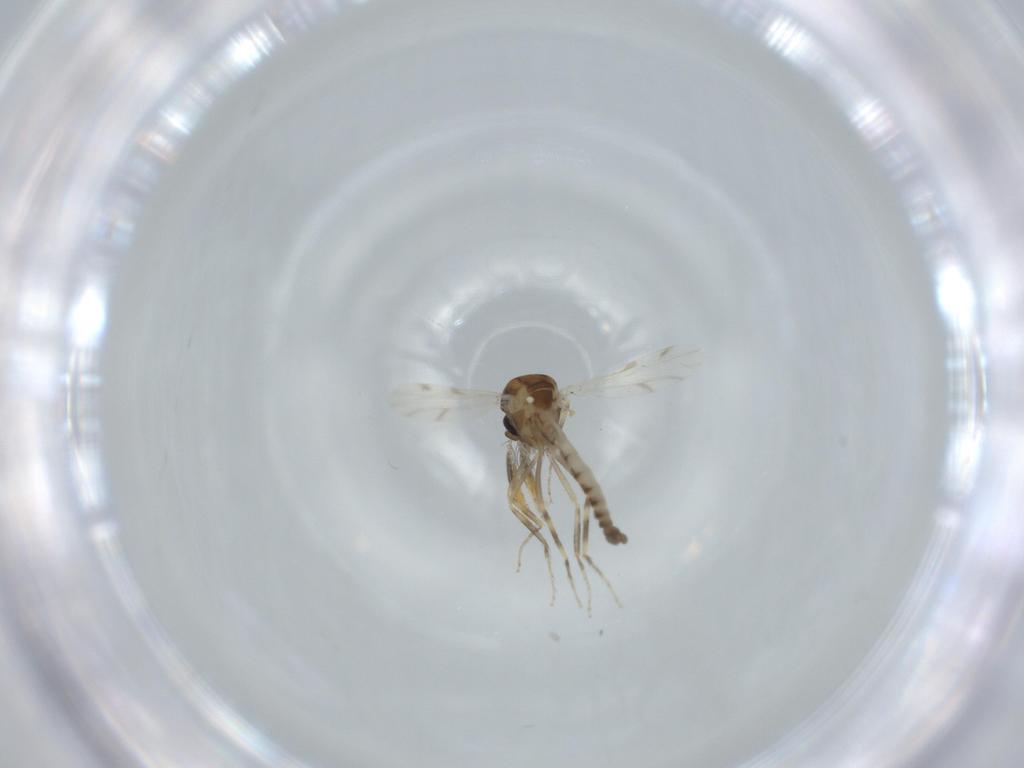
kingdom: Animalia
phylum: Arthropoda
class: Insecta
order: Diptera
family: Ceratopogonidae
